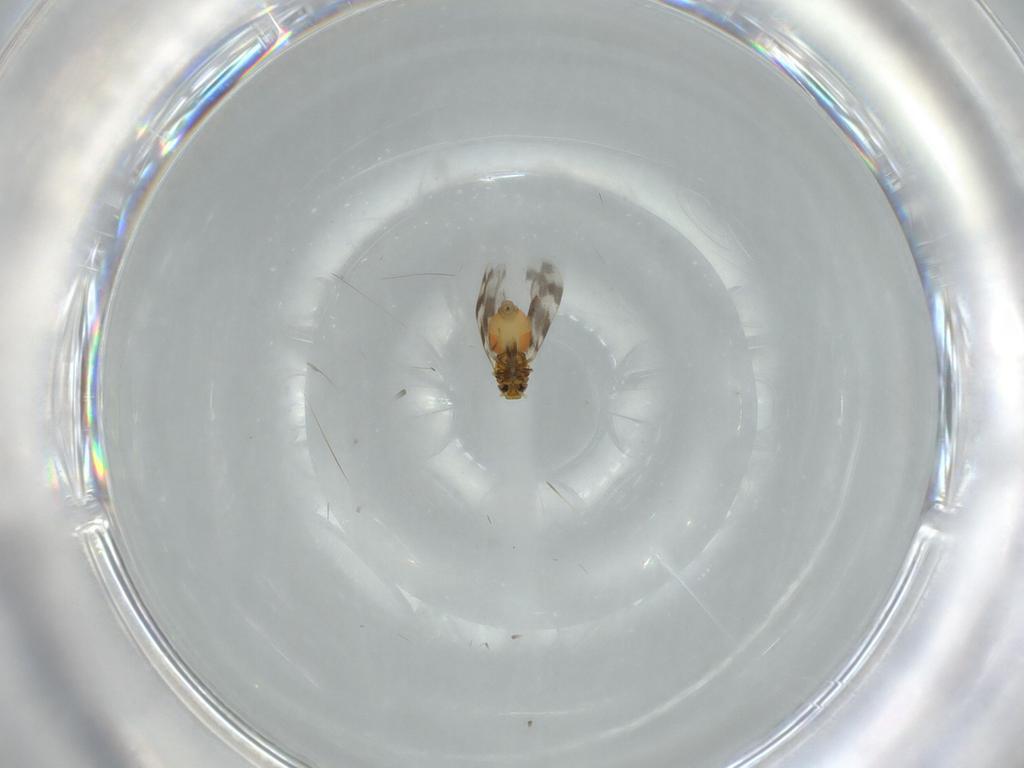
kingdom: Animalia
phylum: Arthropoda
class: Insecta
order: Hemiptera
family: Aleyrodidae
